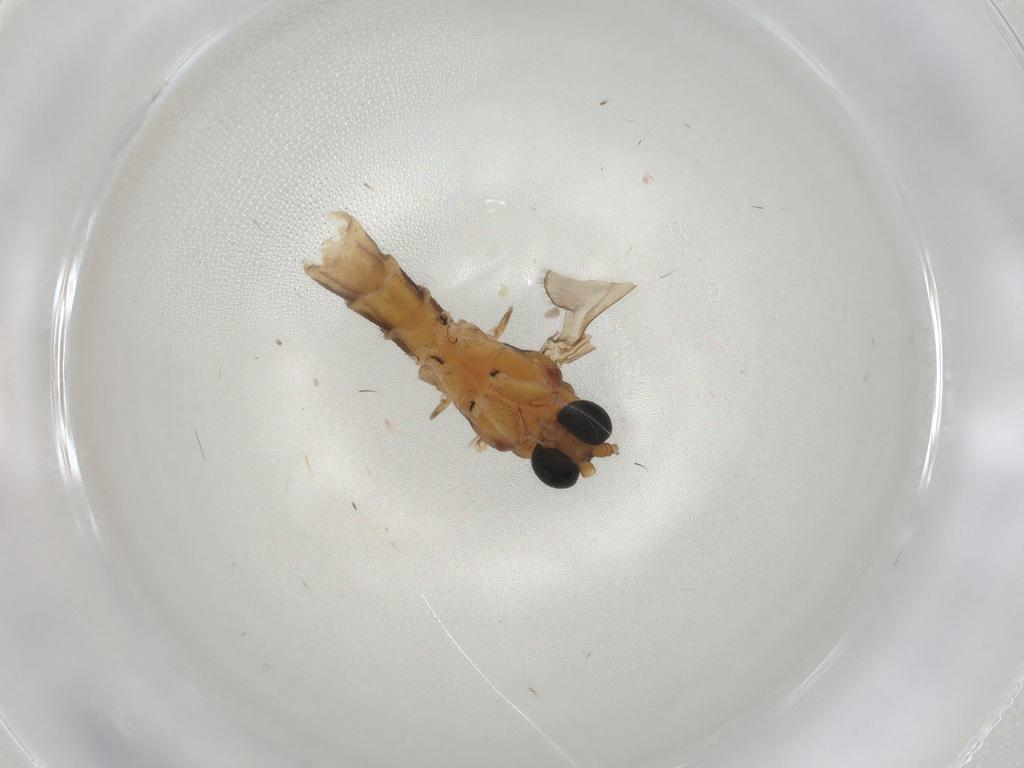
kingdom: Animalia
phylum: Arthropoda
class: Insecta
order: Diptera
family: Sciaridae
